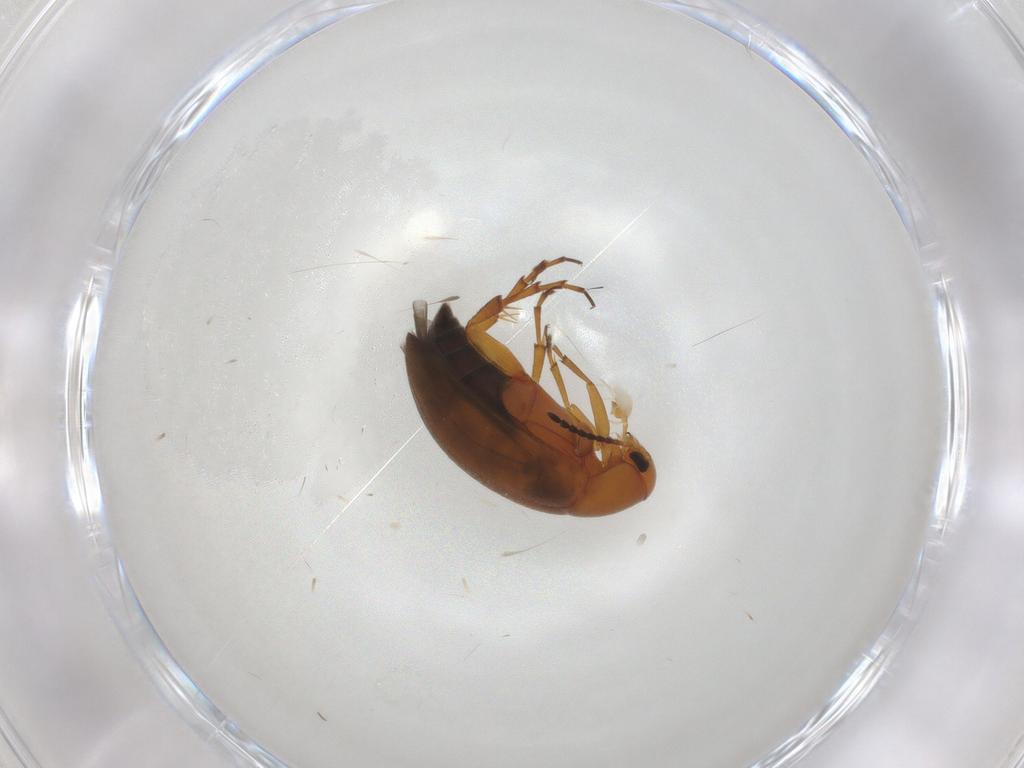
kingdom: Animalia
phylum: Arthropoda
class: Insecta
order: Coleoptera
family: Scraptiidae
